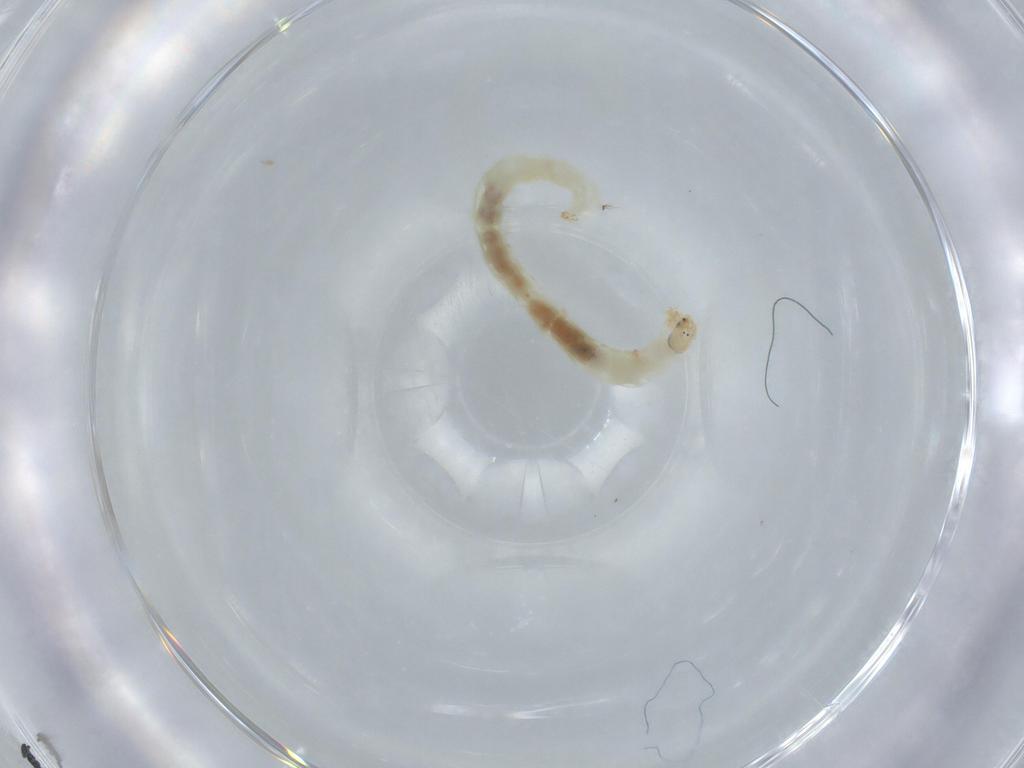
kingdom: Animalia
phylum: Arthropoda
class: Insecta
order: Diptera
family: Chironomidae
